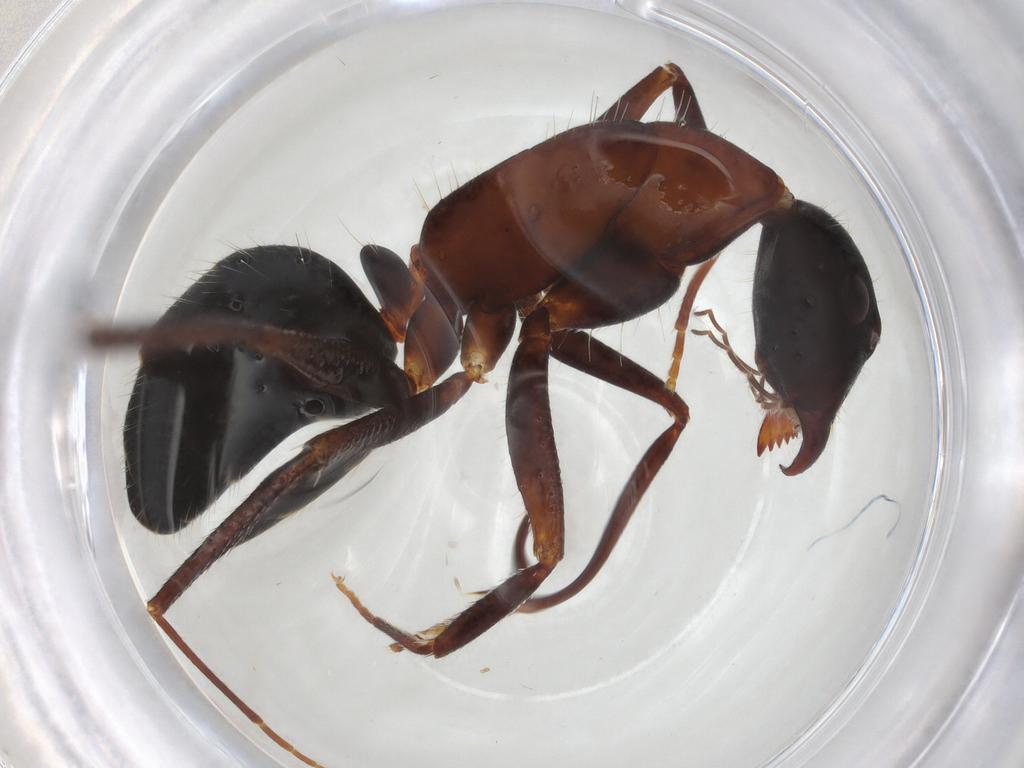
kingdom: Animalia
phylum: Arthropoda
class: Insecta
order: Hymenoptera
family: Formicidae
